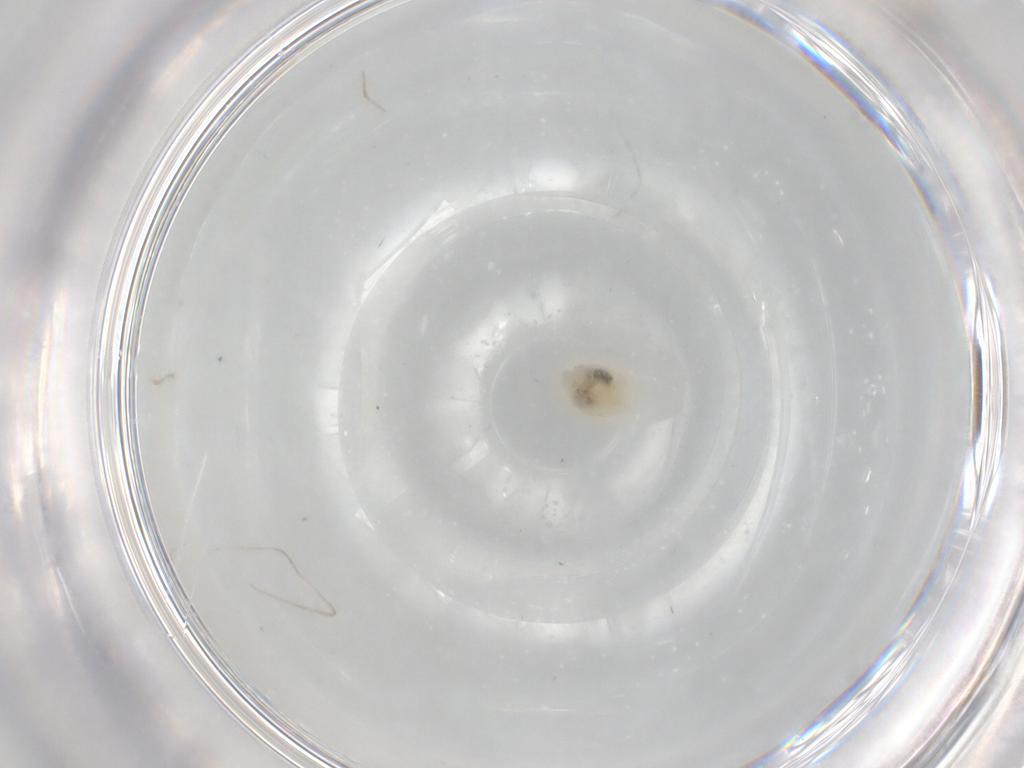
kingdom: Animalia
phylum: Arthropoda
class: Insecta
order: Psocodea
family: Caeciliusidae
